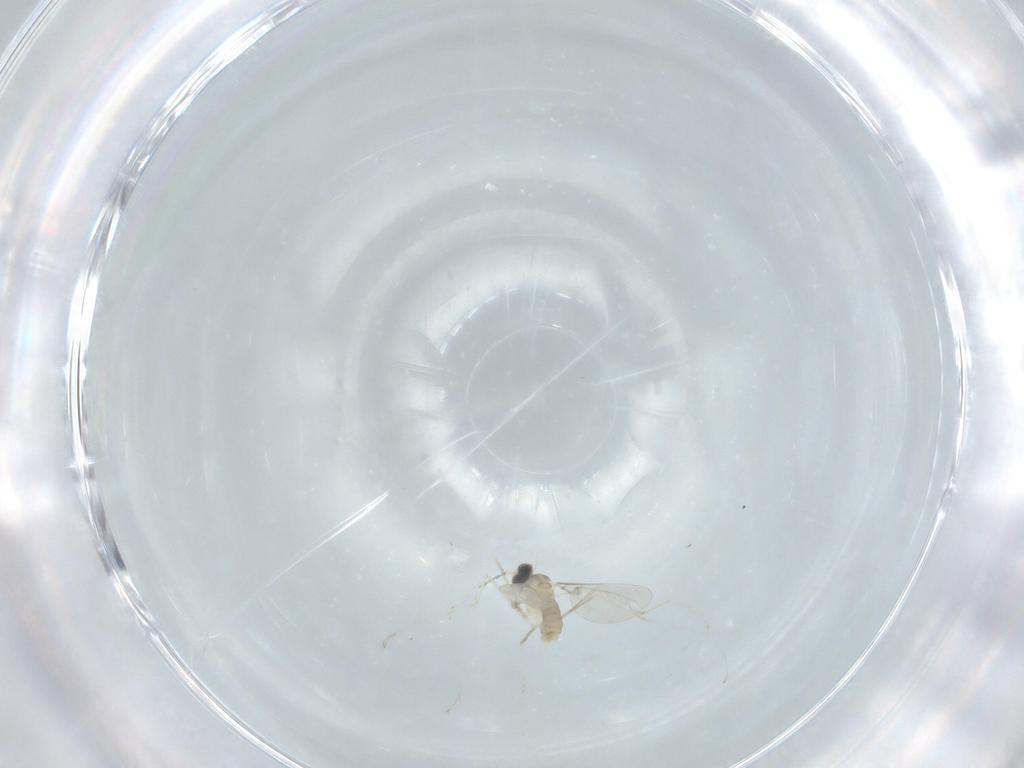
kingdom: Animalia
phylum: Arthropoda
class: Insecta
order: Diptera
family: Cecidomyiidae
